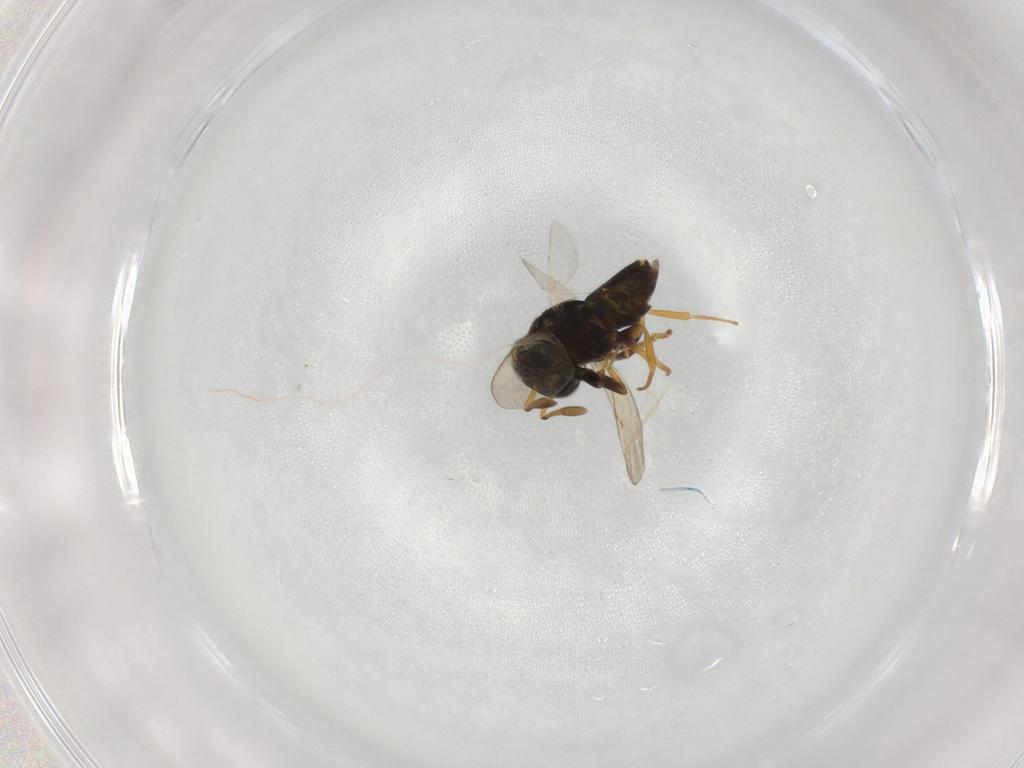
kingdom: Animalia
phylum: Arthropoda
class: Insecta
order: Hymenoptera
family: Encyrtidae
